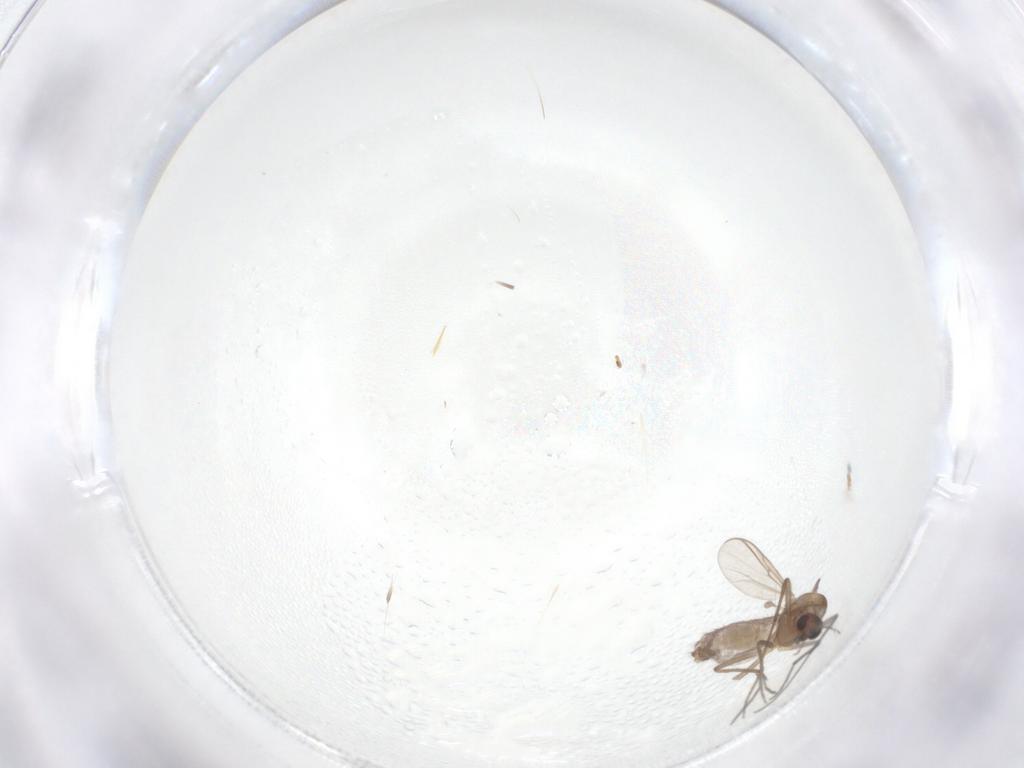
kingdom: Animalia
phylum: Arthropoda
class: Insecta
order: Diptera
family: Chironomidae
